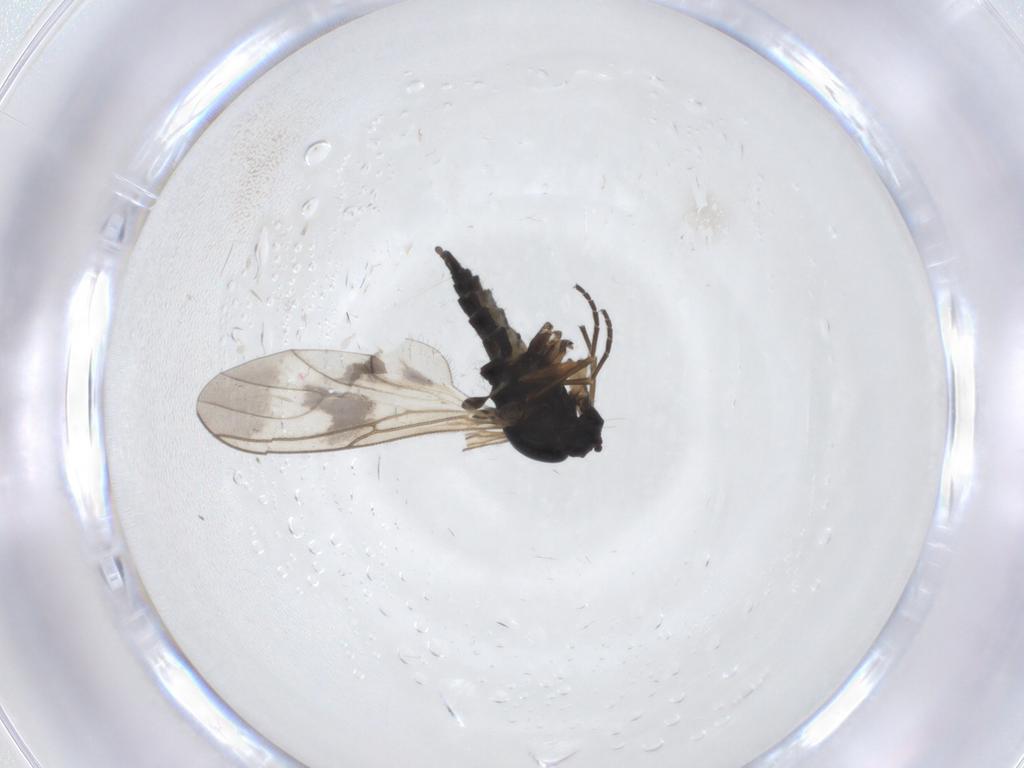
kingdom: Animalia
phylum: Arthropoda
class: Insecta
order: Diptera
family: Sciaridae
